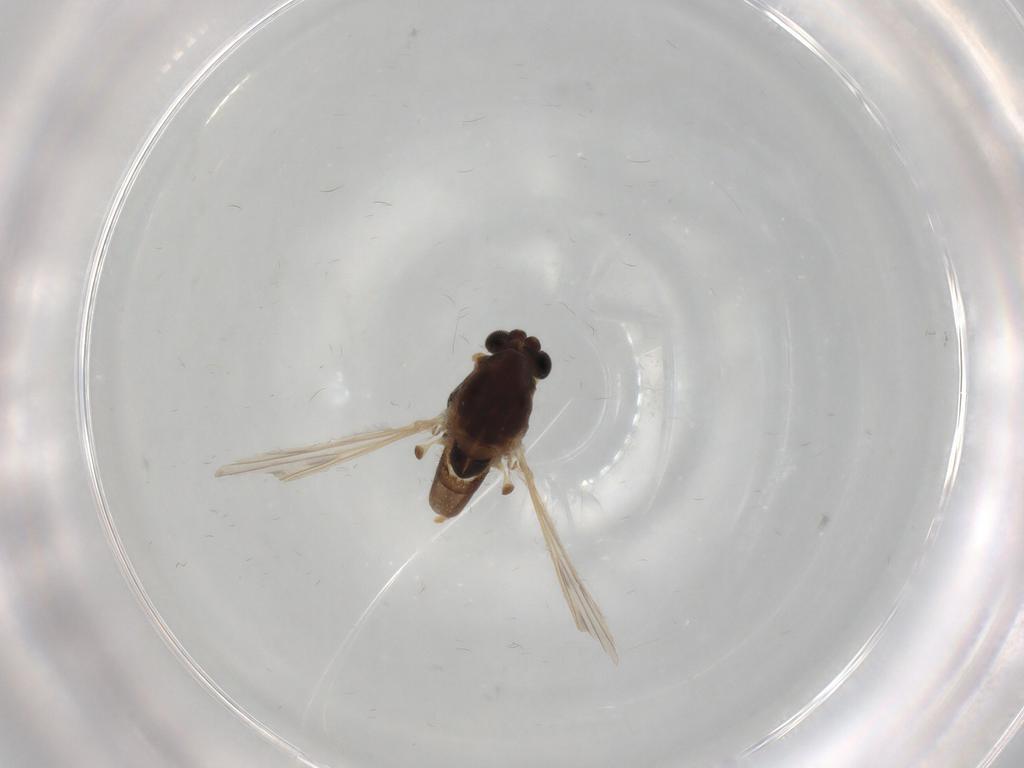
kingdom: Animalia
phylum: Arthropoda
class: Insecta
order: Diptera
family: Chironomidae
